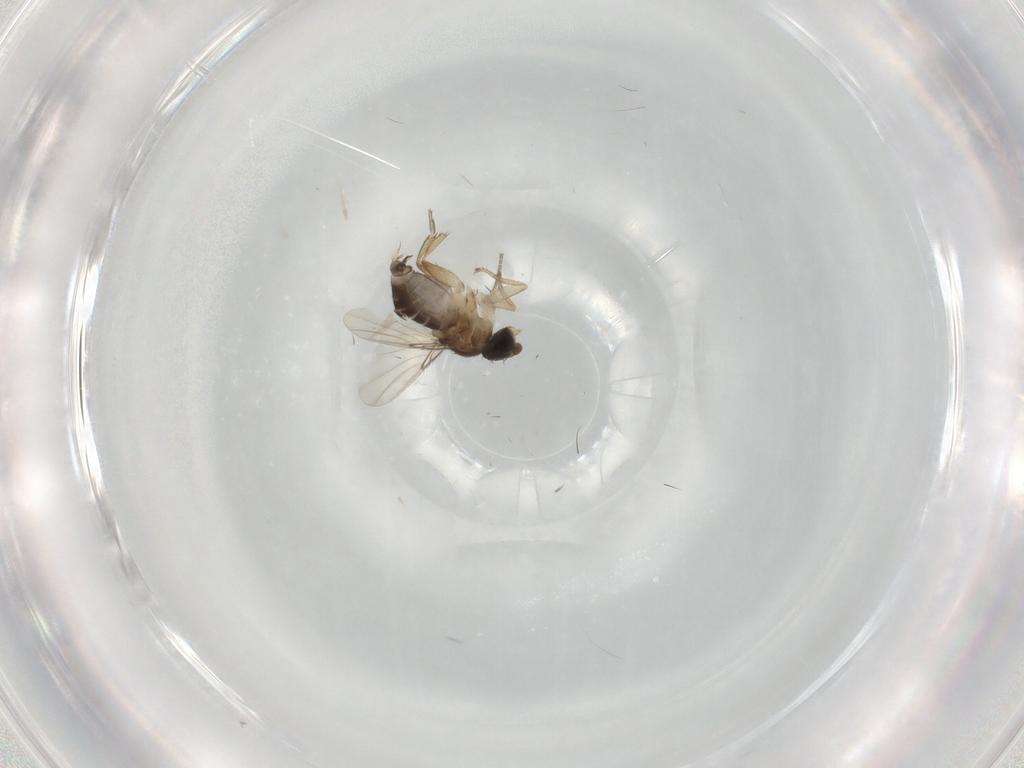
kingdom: Animalia
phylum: Arthropoda
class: Insecta
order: Diptera
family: Phoridae
